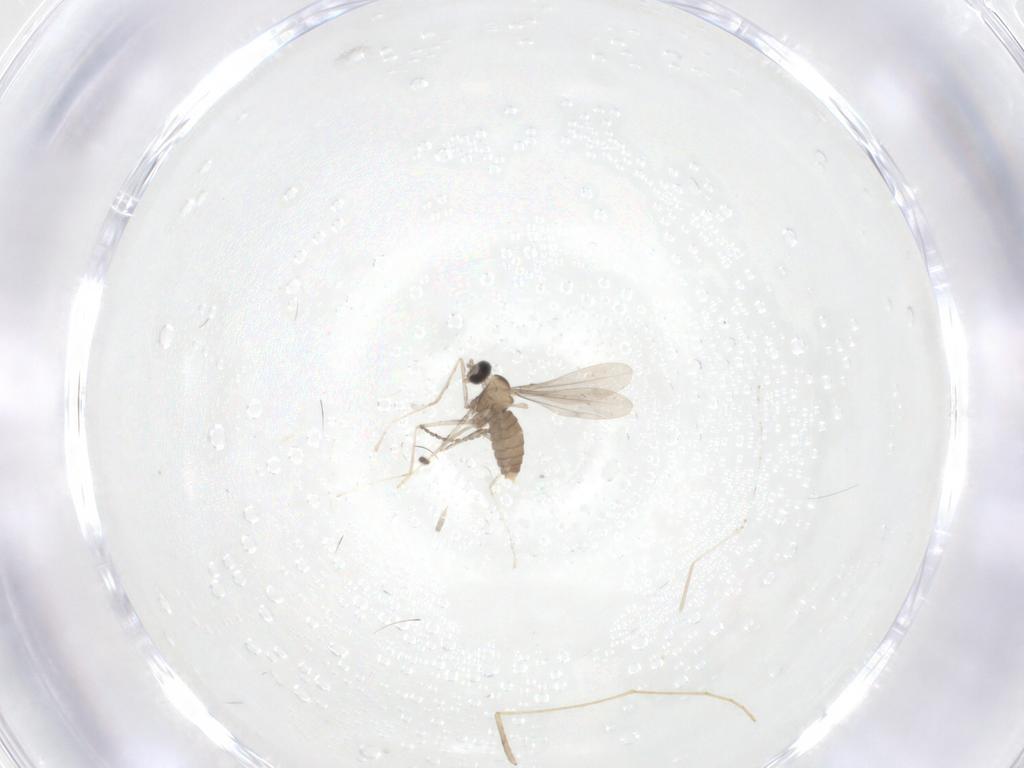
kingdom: Animalia
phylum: Arthropoda
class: Insecta
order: Diptera
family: Cecidomyiidae
